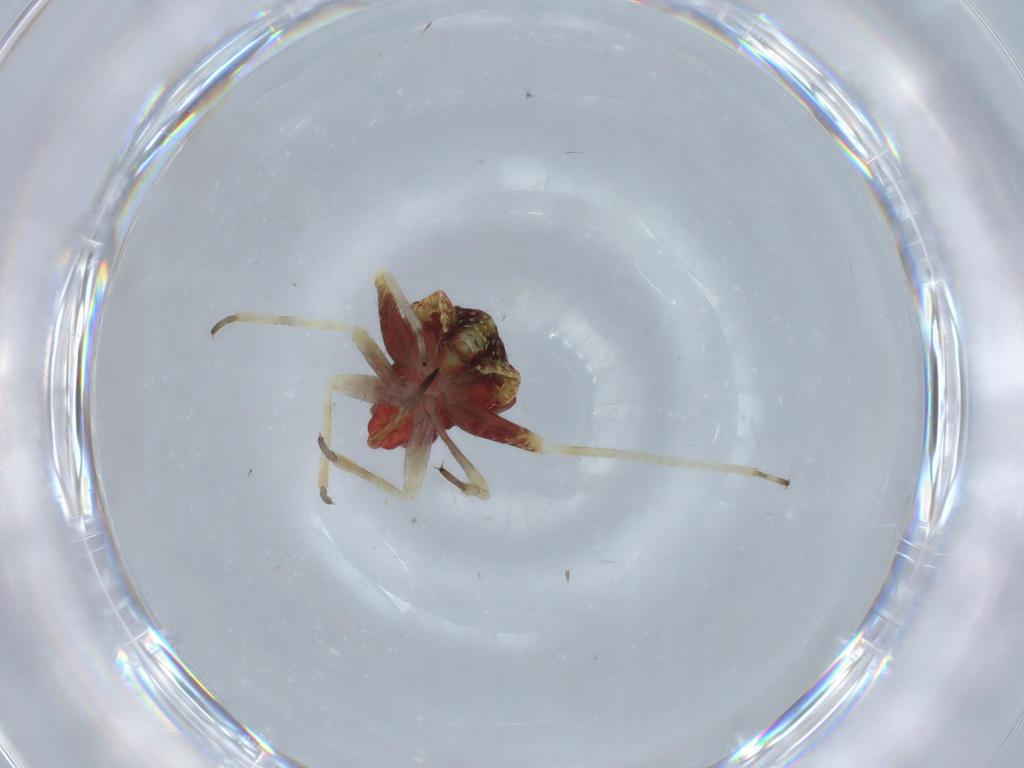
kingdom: Animalia
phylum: Arthropoda
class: Insecta
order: Hemiptera
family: Miridae
